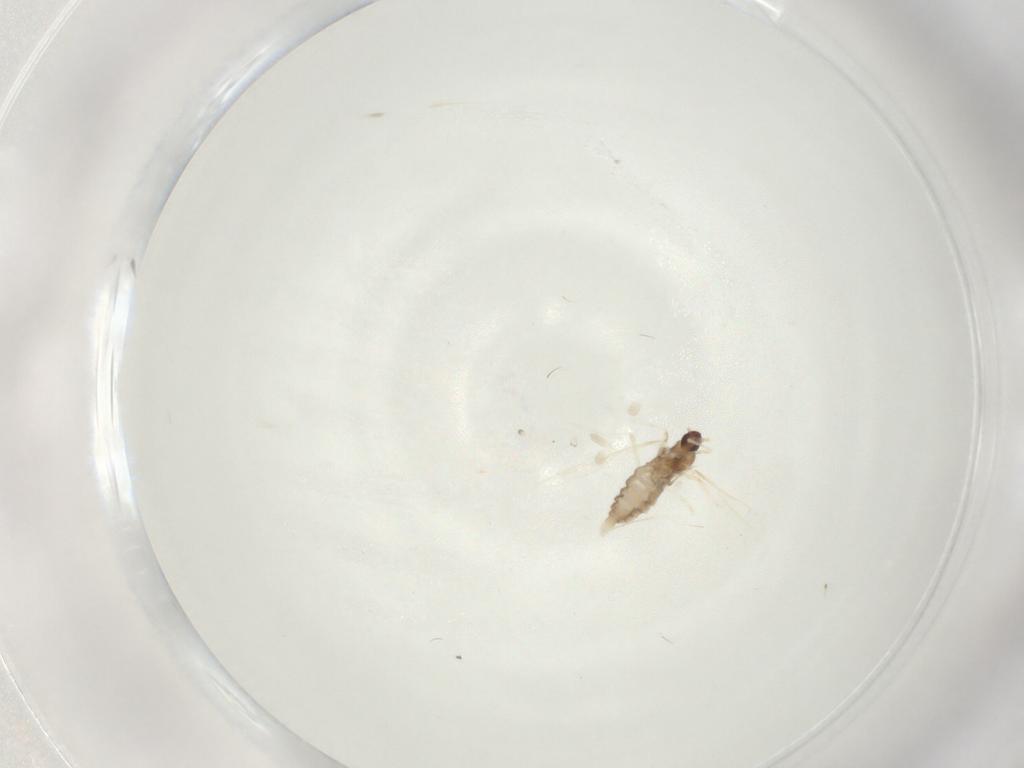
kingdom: Animalia
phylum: Arthropoda
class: Insecta
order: Diptera
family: Cecidomyiidae
